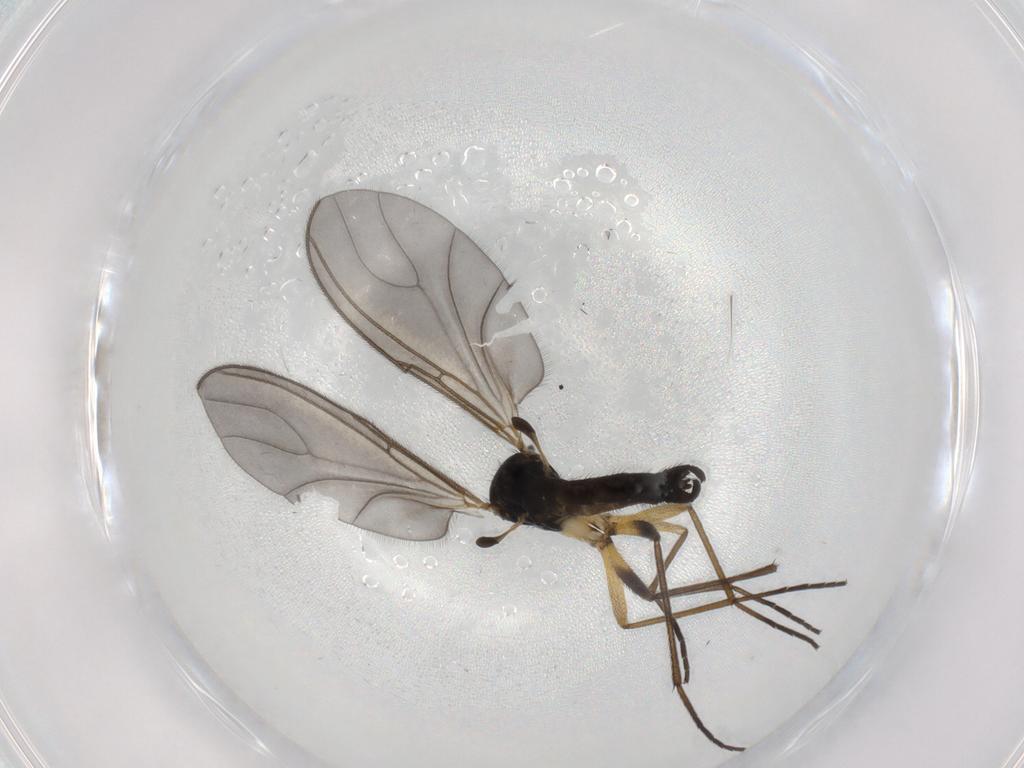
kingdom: Animalia
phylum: Arthropoda
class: Insecta
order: Diptera
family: Sciaridae
